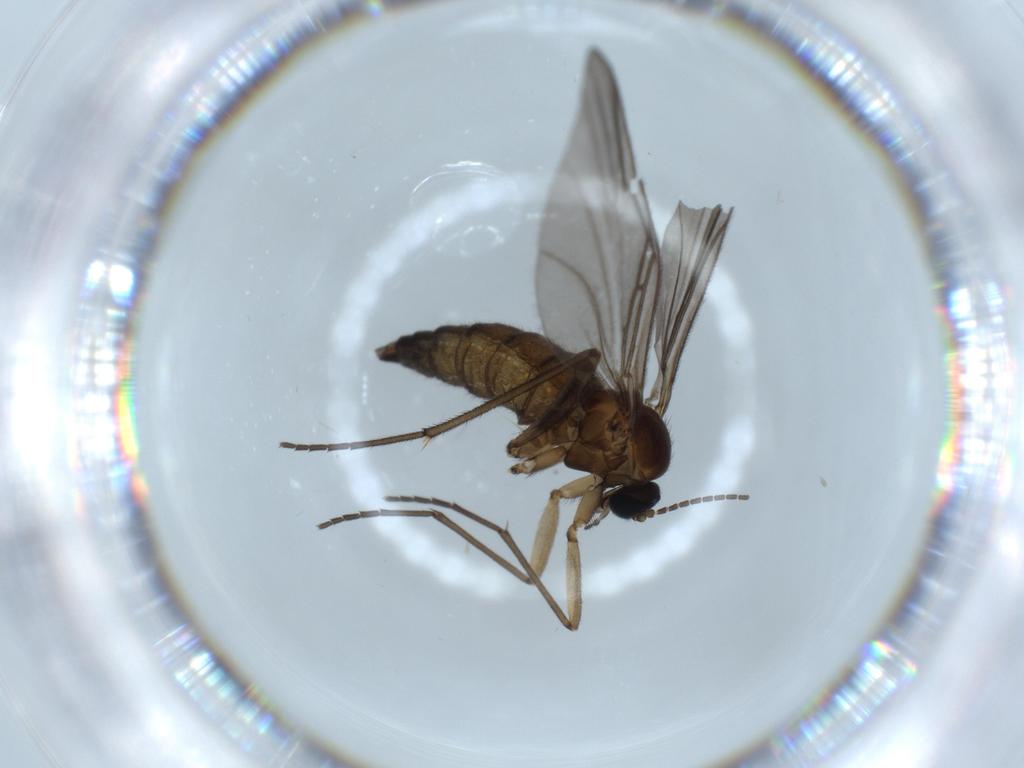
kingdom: Animalia
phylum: Arthropoda
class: Insecta
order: Diptera
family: Sciaridae
